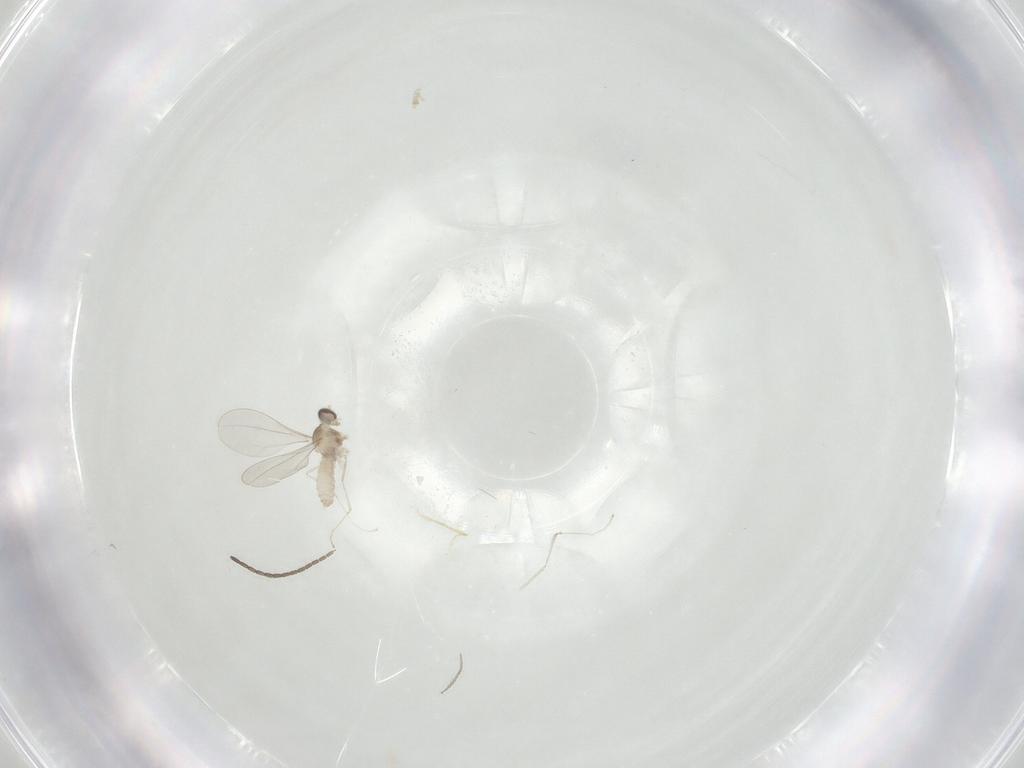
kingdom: Animalia
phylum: Arthropoda
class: Insecta
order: Diptera
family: Cecidomyiidae
